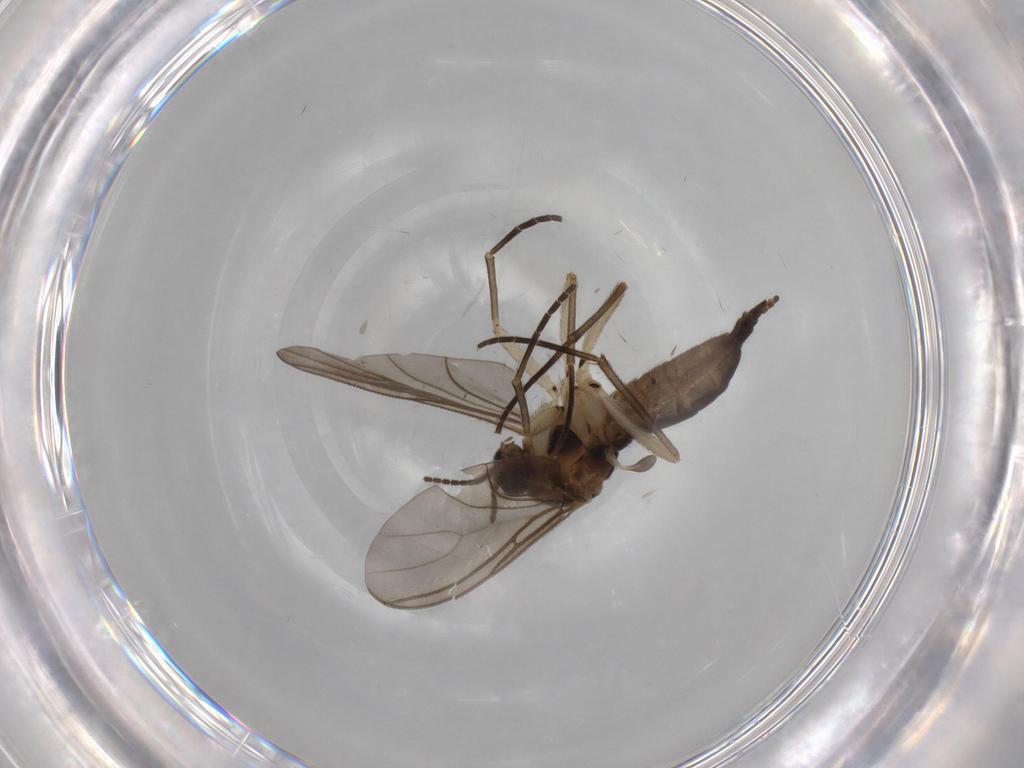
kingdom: Animalia
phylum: Arthropoda
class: Insecta
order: Diptera
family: Sciaridae
